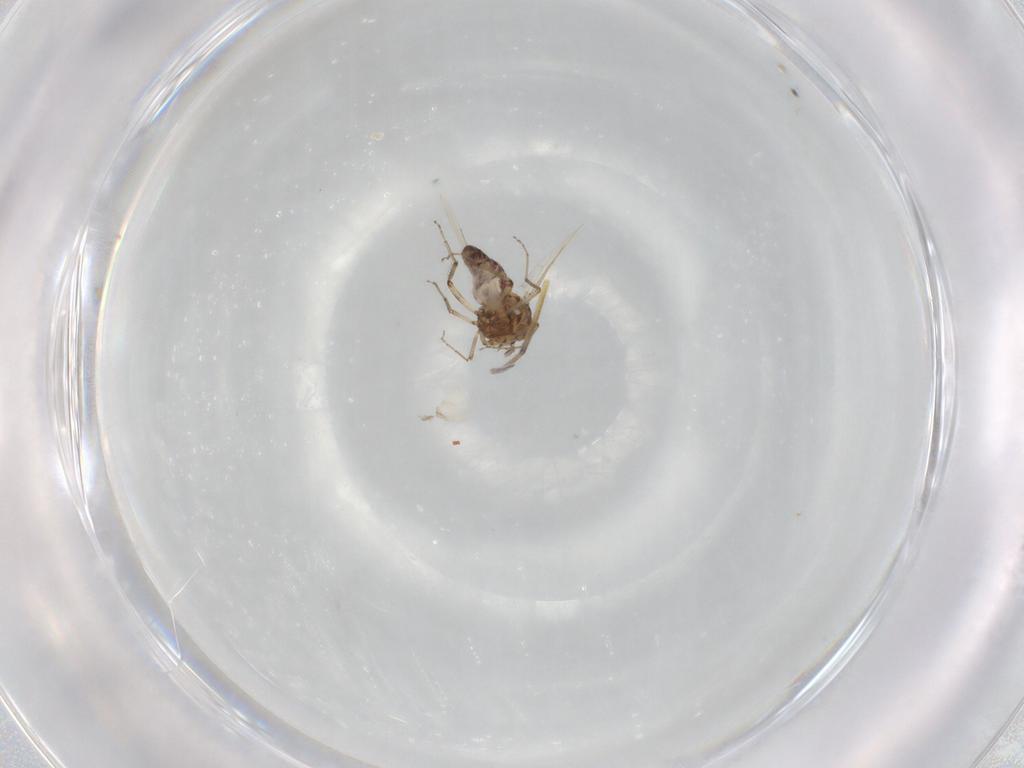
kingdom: Animalia
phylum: Arthropoda
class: Insecta
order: Diptera
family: Ceratopogonidae
